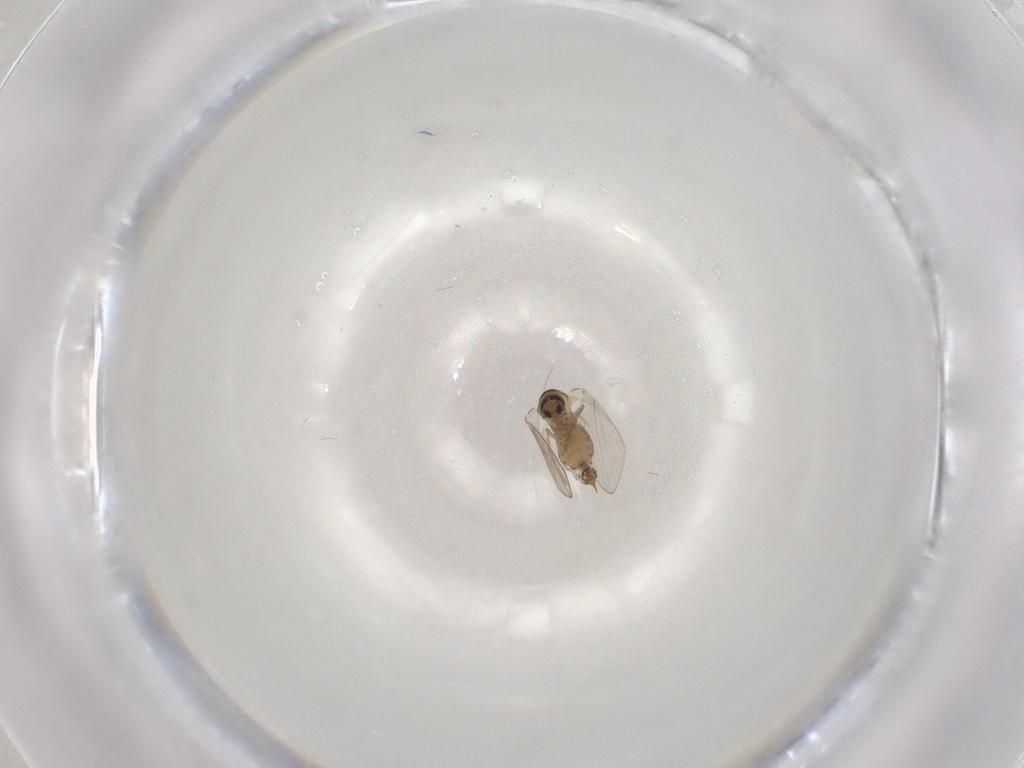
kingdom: Animalia
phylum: Arthropoda
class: Insecta
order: Diptera
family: Psychodidae
